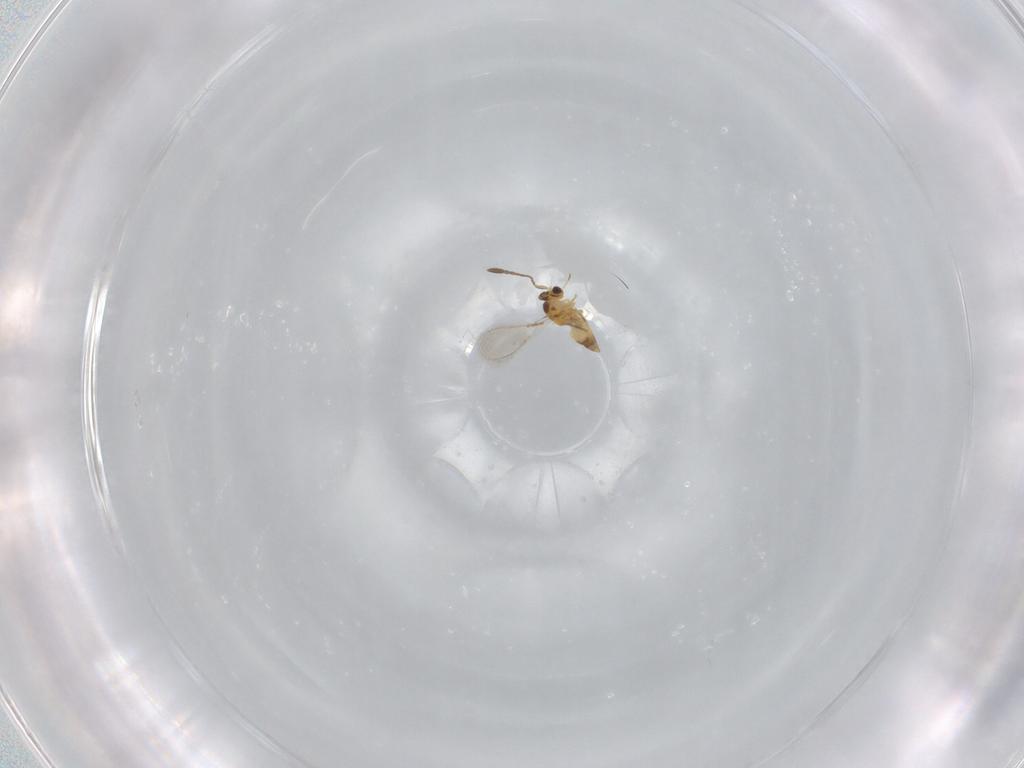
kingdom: Animalia
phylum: Arthropoda
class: Insecta
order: Hymenoptera
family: Mymaridae
